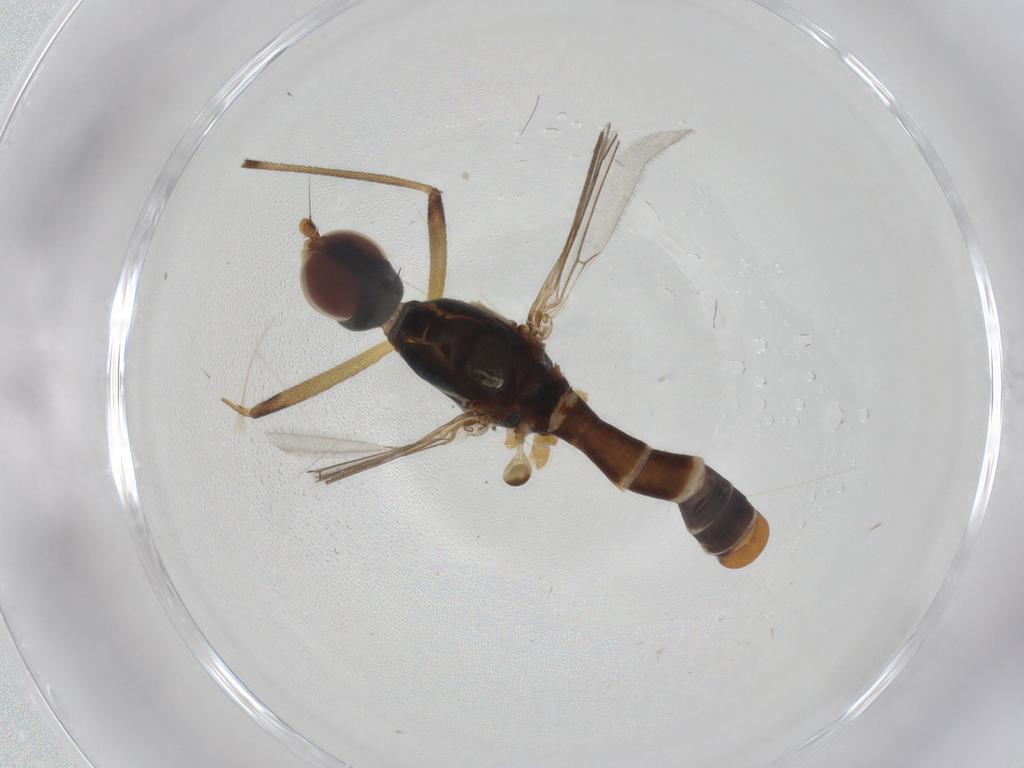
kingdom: Animalia
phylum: Arthropoda
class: Insecta
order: Diptera
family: Micropezidae
